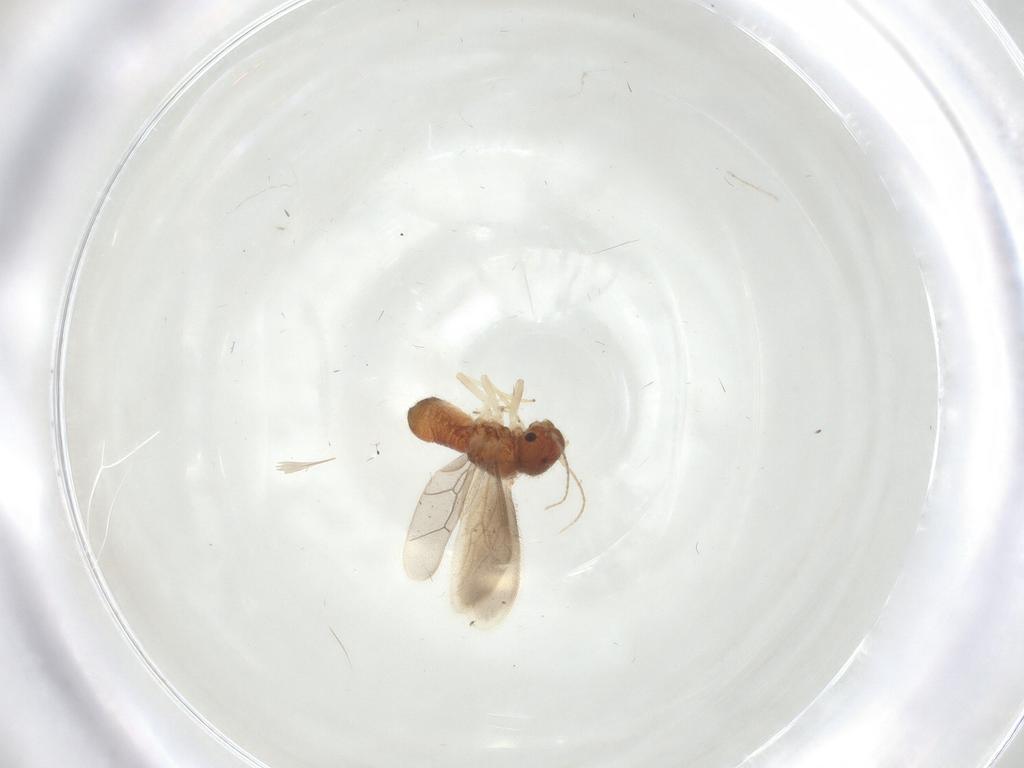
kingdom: Animalia
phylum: Arthropoda
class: Insecta
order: Psocodea
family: Archipsocidae
